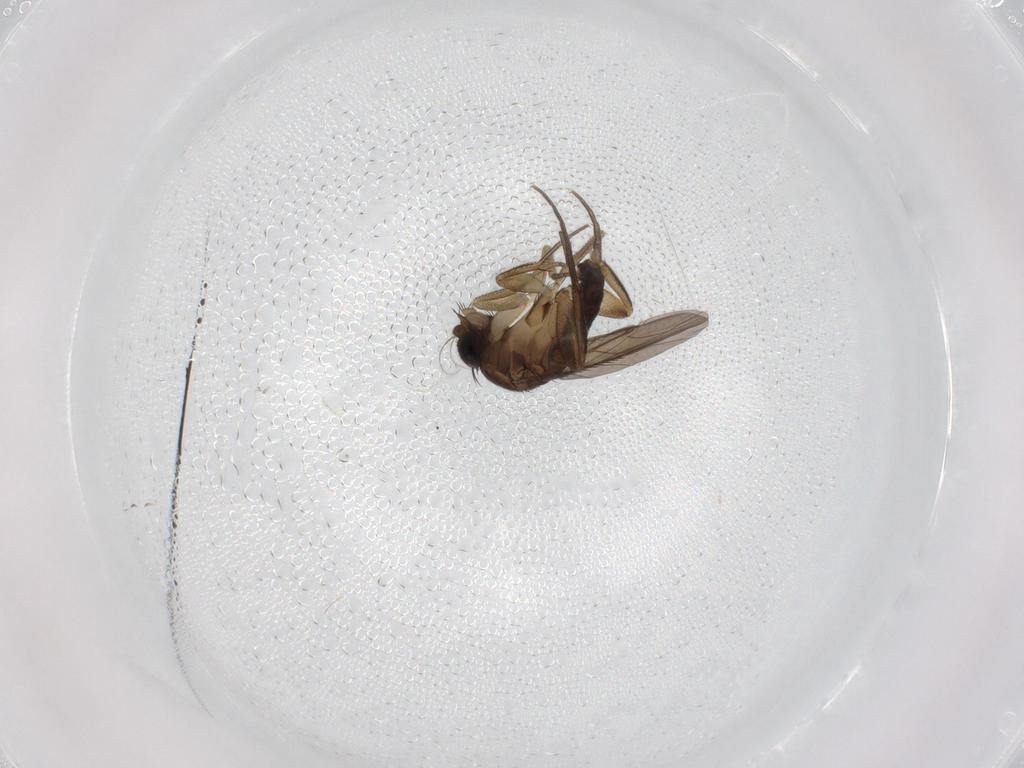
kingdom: Animalia
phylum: Arthropoda
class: Insecta
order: Diptera
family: Phoridae
